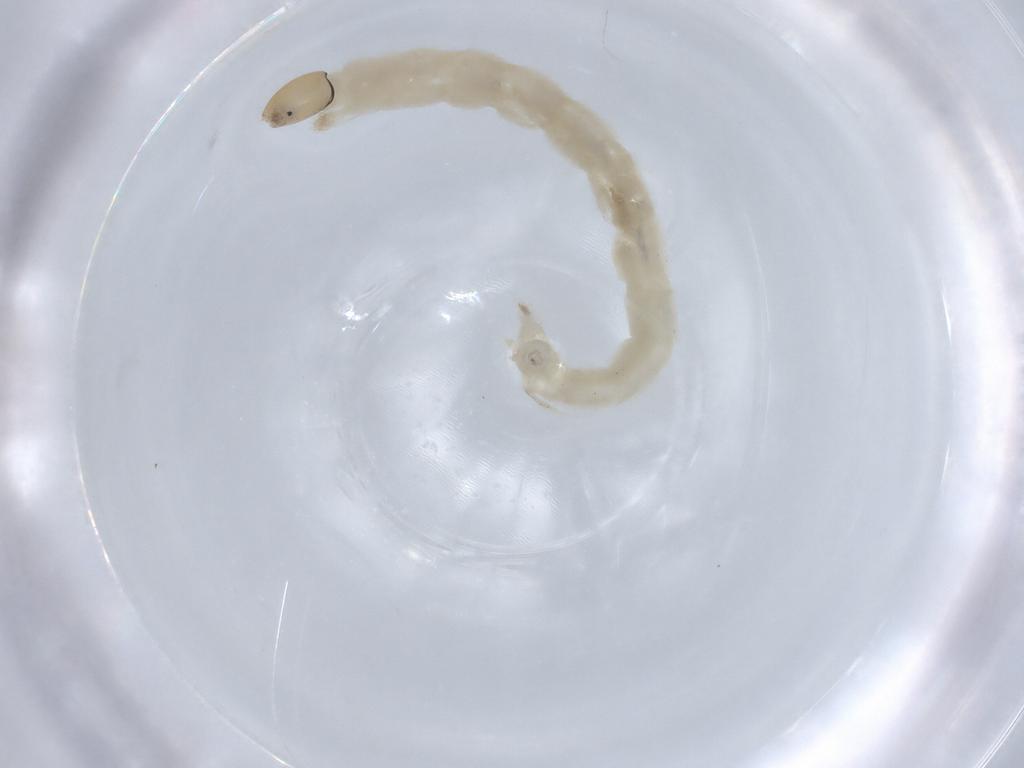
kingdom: Animalia
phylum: Arthropoda
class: Insecta
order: Diptera
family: Chironomidae
